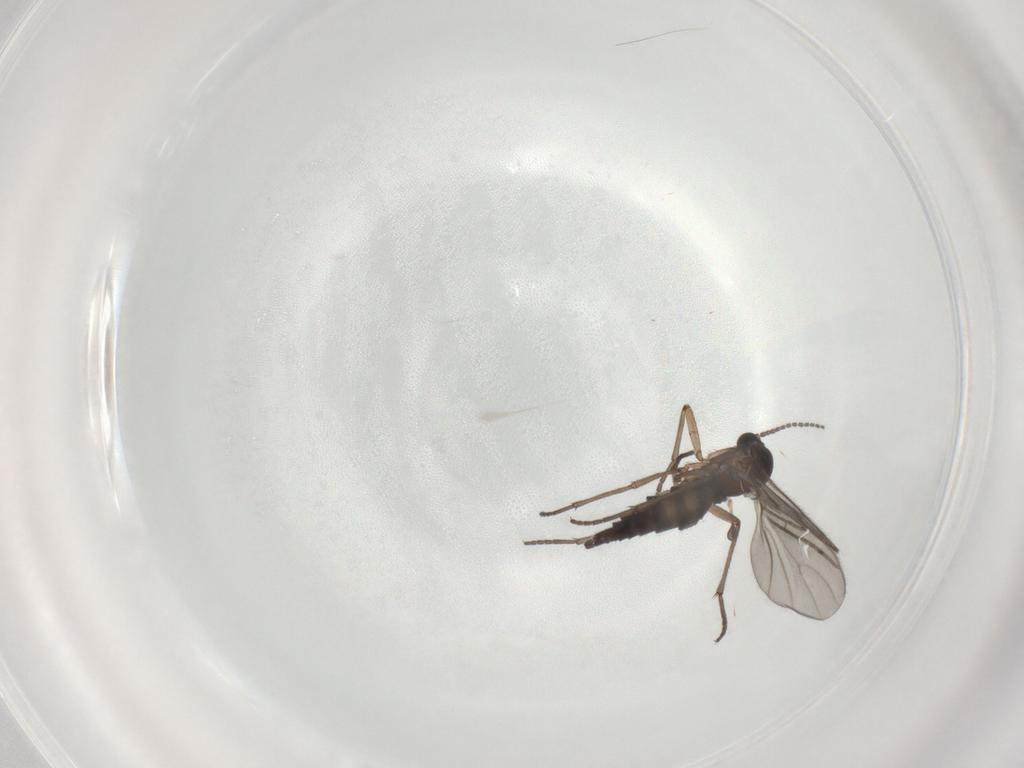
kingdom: Animalia
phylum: Arthropoda
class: Insecta
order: Diptera
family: Sciaridae
